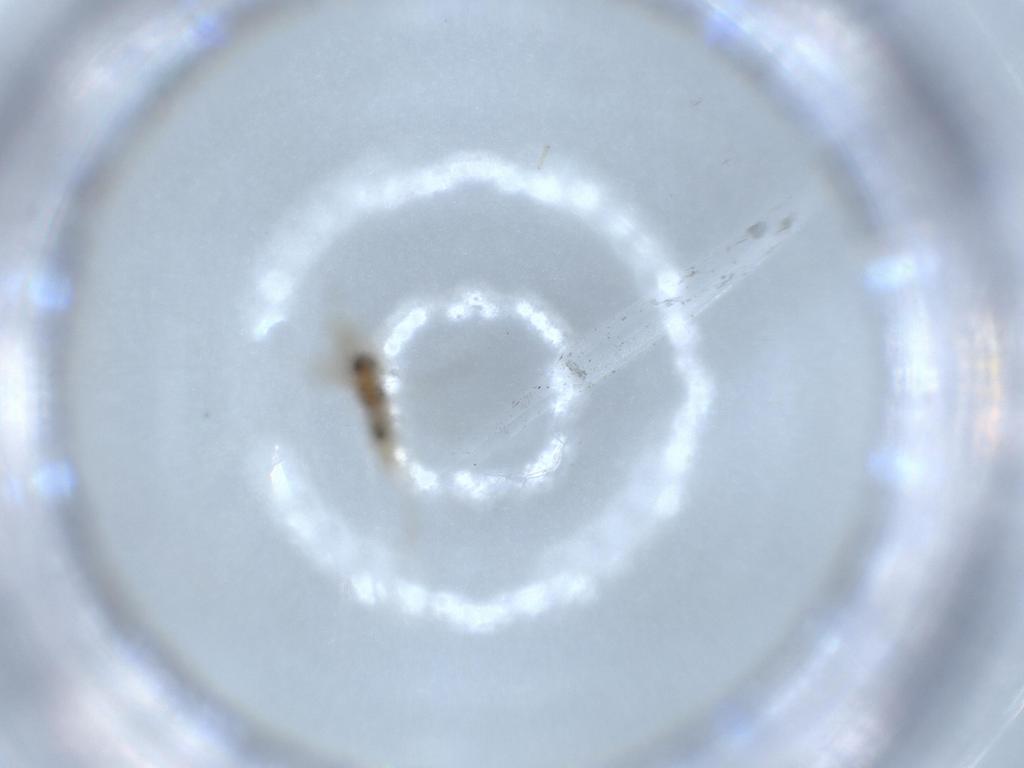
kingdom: Animalia
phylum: Arthropoda
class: Insecta
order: Diptera
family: Cecidomyiidae
